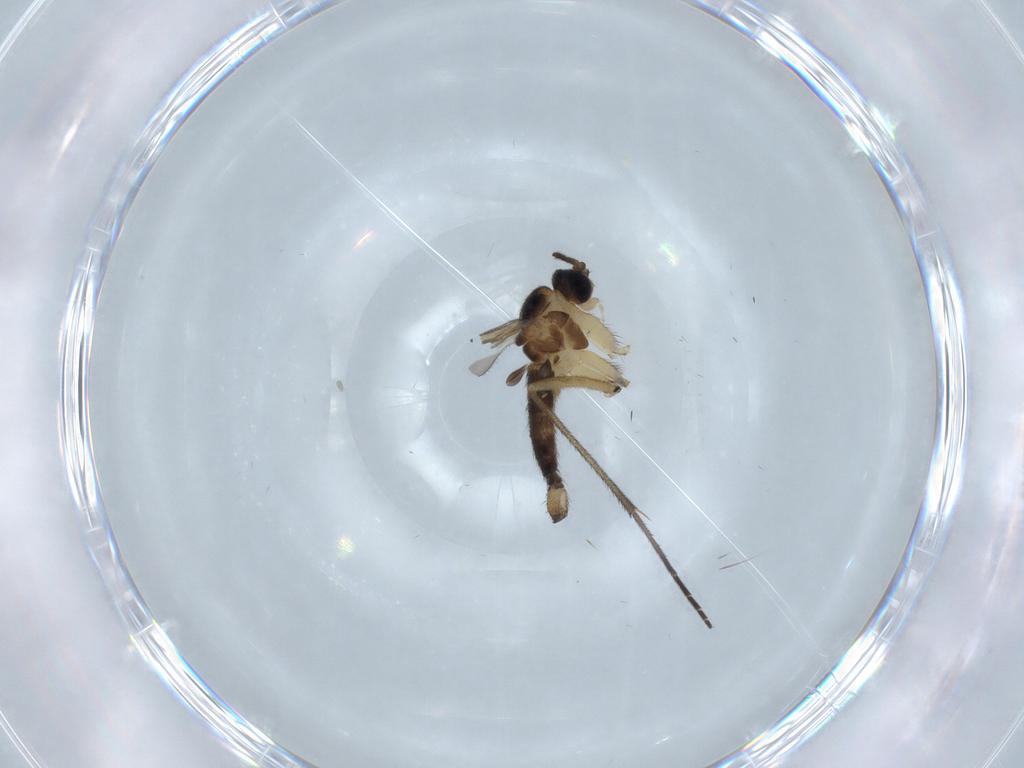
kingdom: Animalia
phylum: Arthropoda
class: Insecta
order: Diptera
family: Sciaridae
